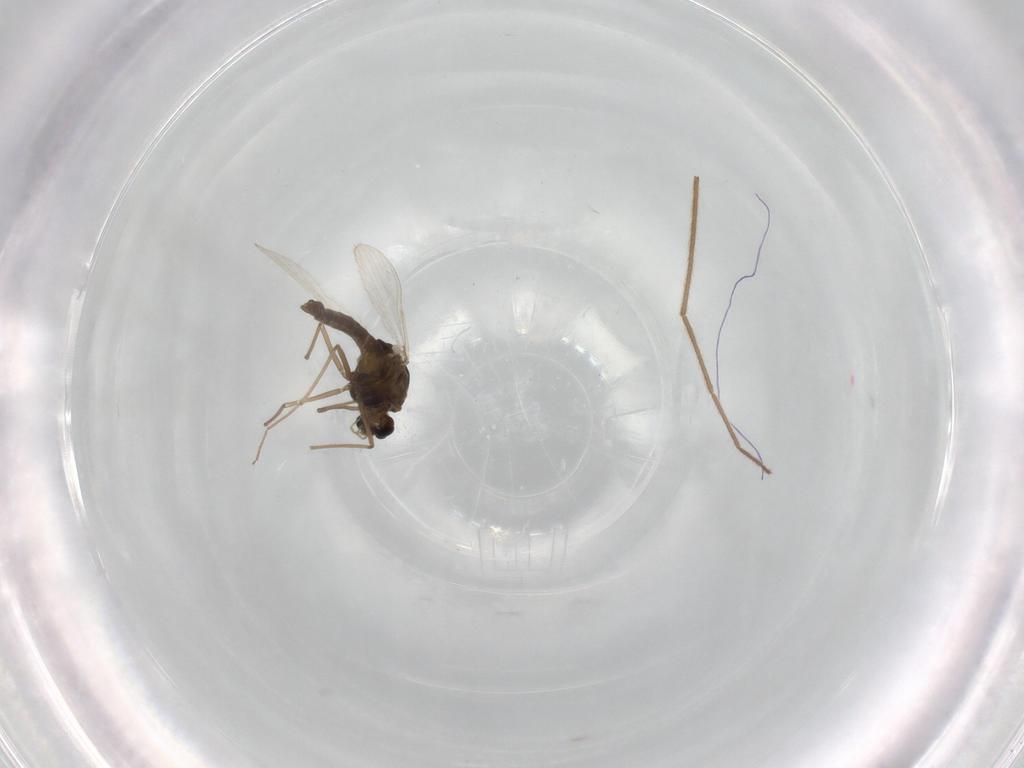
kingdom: Animalia
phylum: Arthropoda
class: Insecta
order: Diptera
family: Chironomidae
